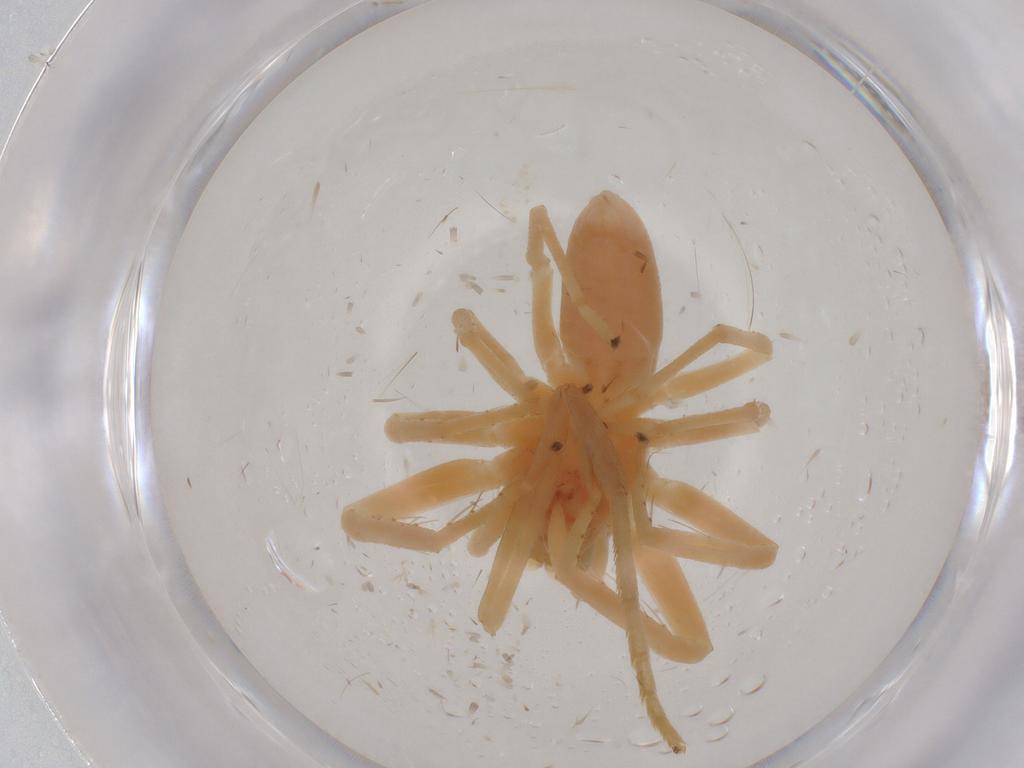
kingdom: Animalia
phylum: Arthropoda
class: Arachnida
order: Araneae
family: Salticidae
